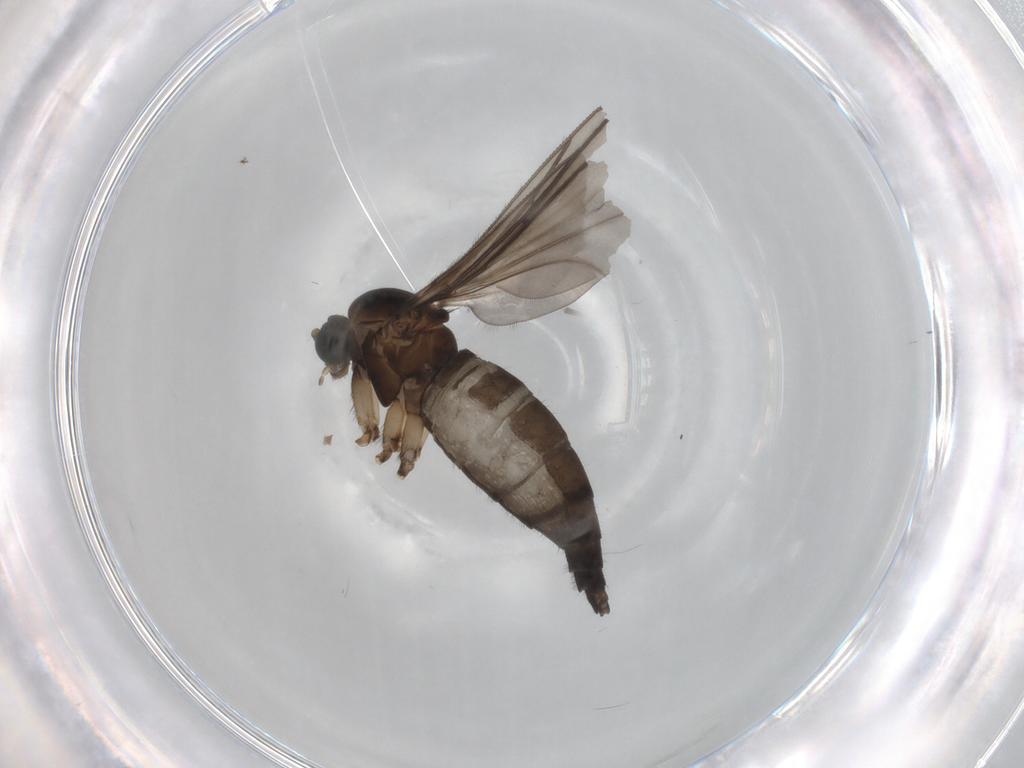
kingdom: Animalia
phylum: Arthropoda
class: Insecta
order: Diptera
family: Sciaridae
